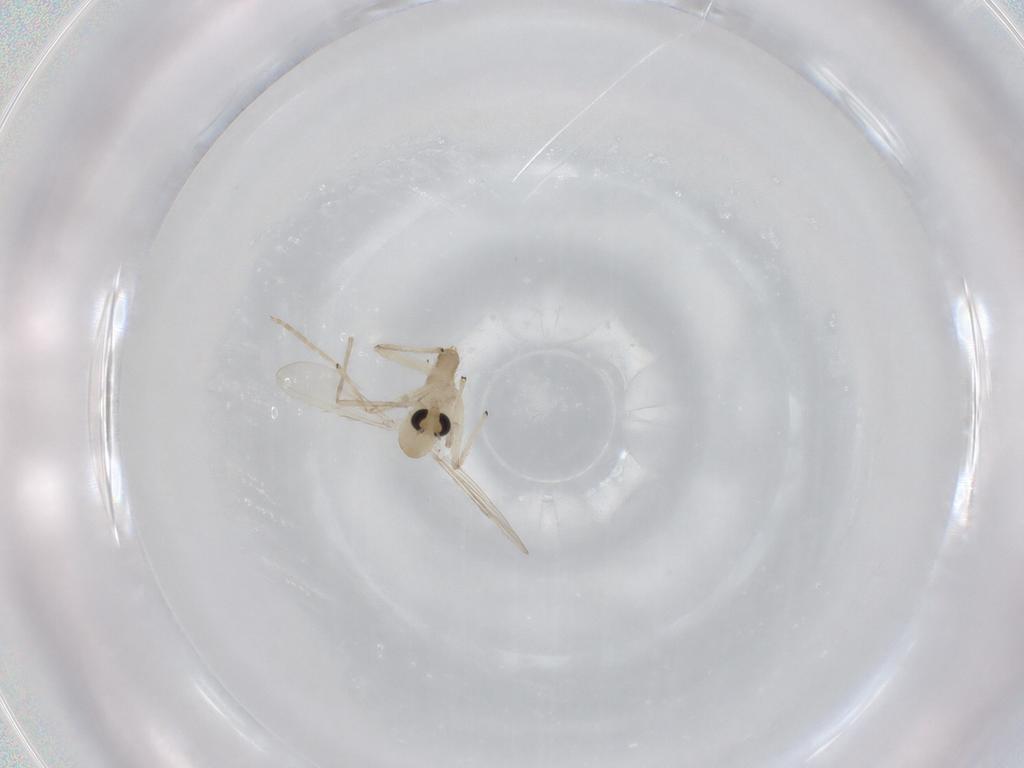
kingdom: Animalia
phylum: Arthropoda
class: Insecta
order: Diptera
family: Chironomidae
